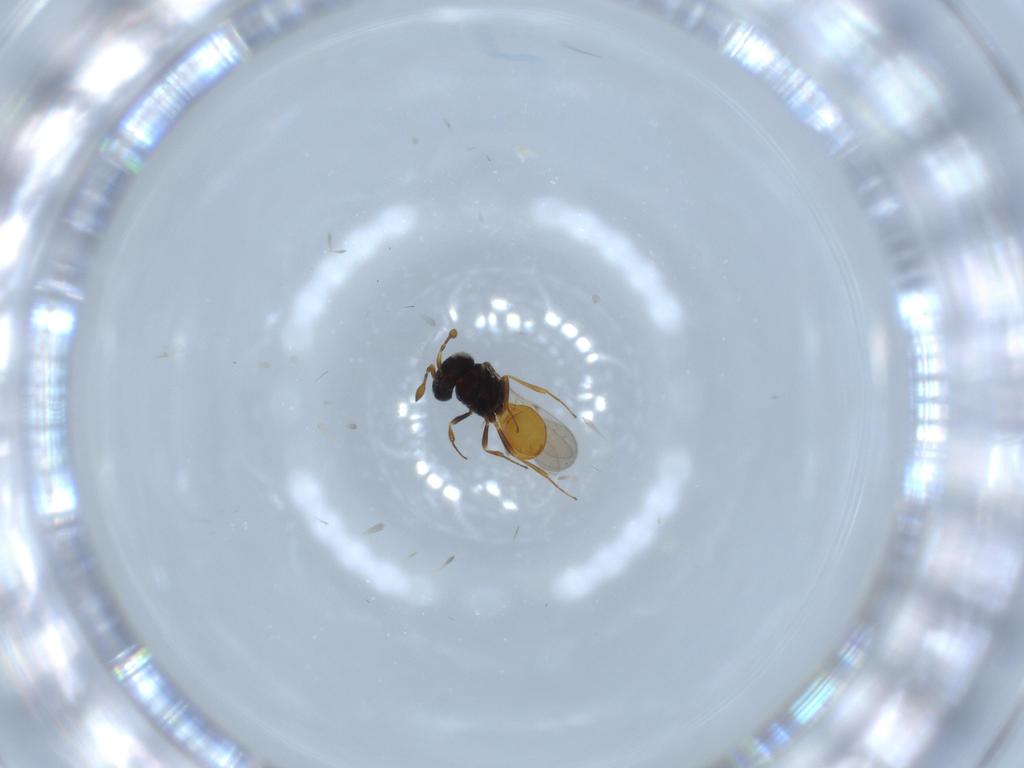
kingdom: Animalia
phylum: Arthropoda
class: Insecta
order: Hymenoptera
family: Scelionidae
